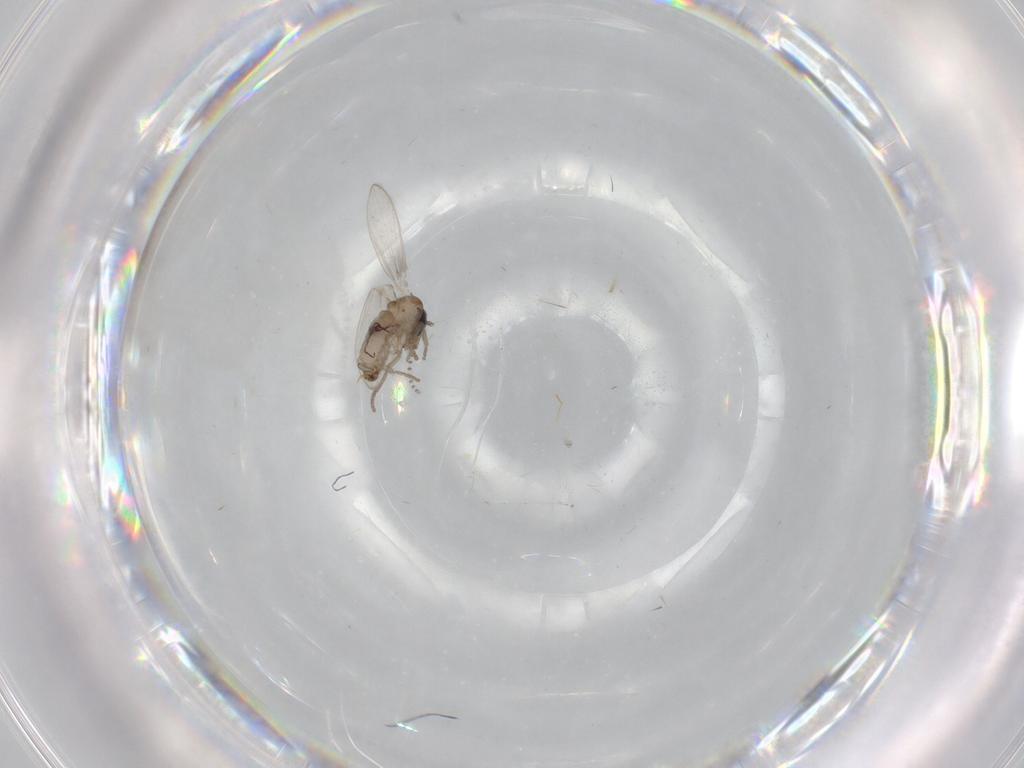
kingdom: Animalia
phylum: Arthropoda
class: Insecta
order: Diptera
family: Psychodidae
